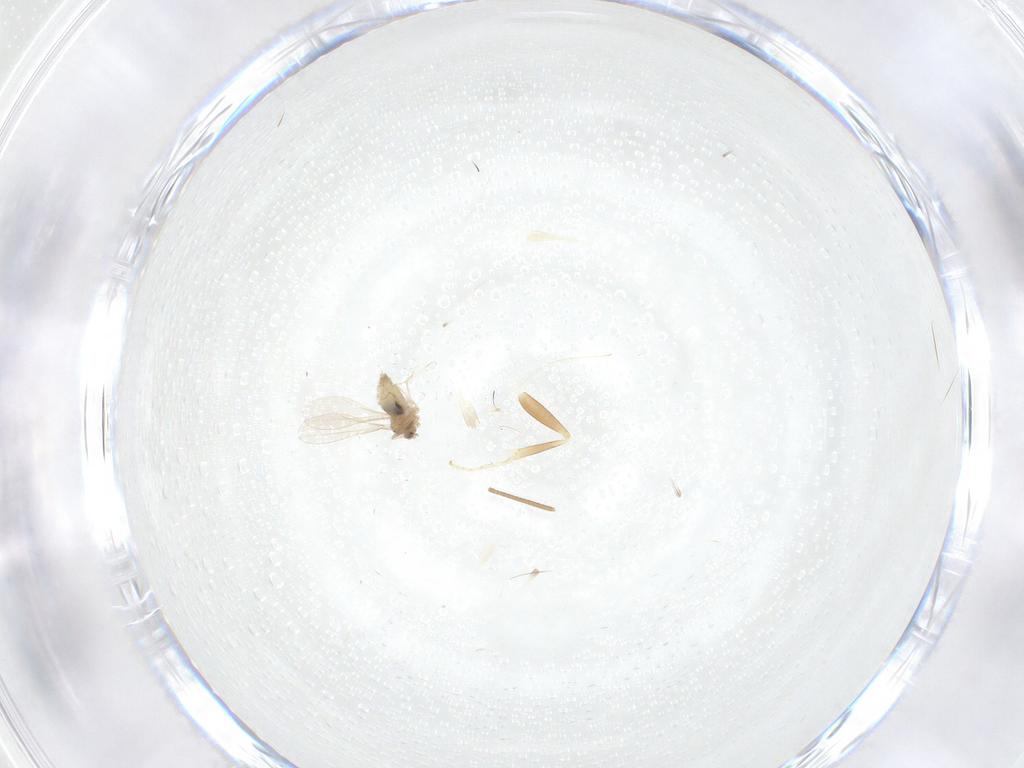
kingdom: Animalia
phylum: Arthropoda
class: Insecta
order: Diptera
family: Cecidomyiidae
